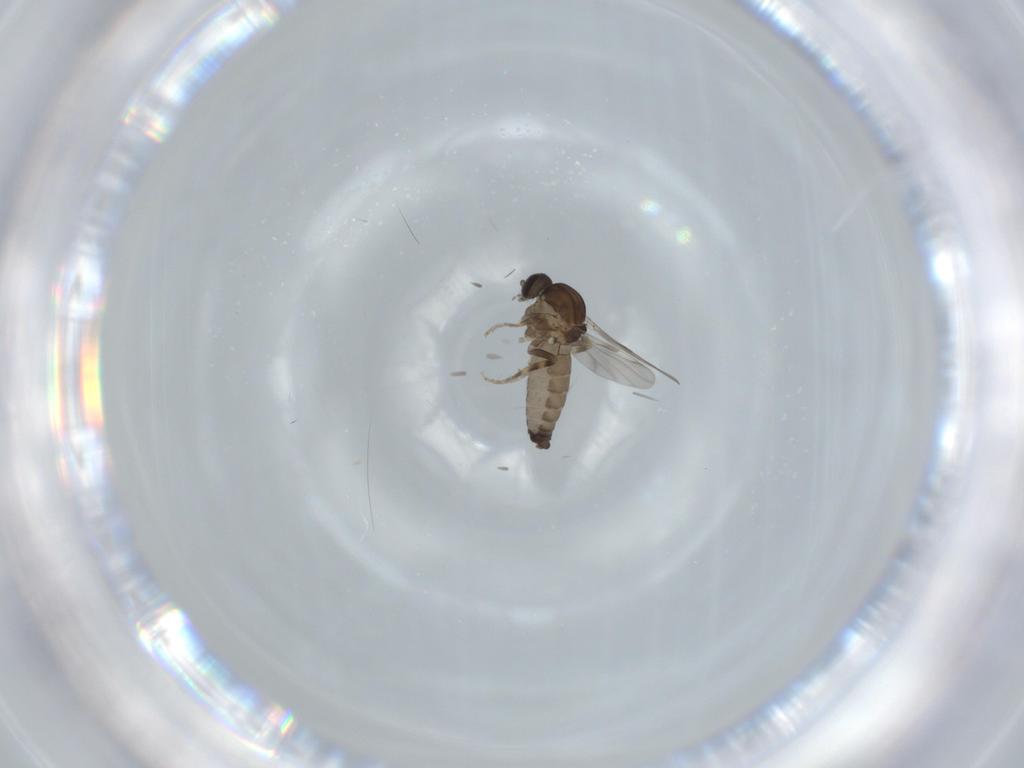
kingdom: Animalia
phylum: Arthropoda
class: Insecta
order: Diptera
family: Ceratopogonidae
